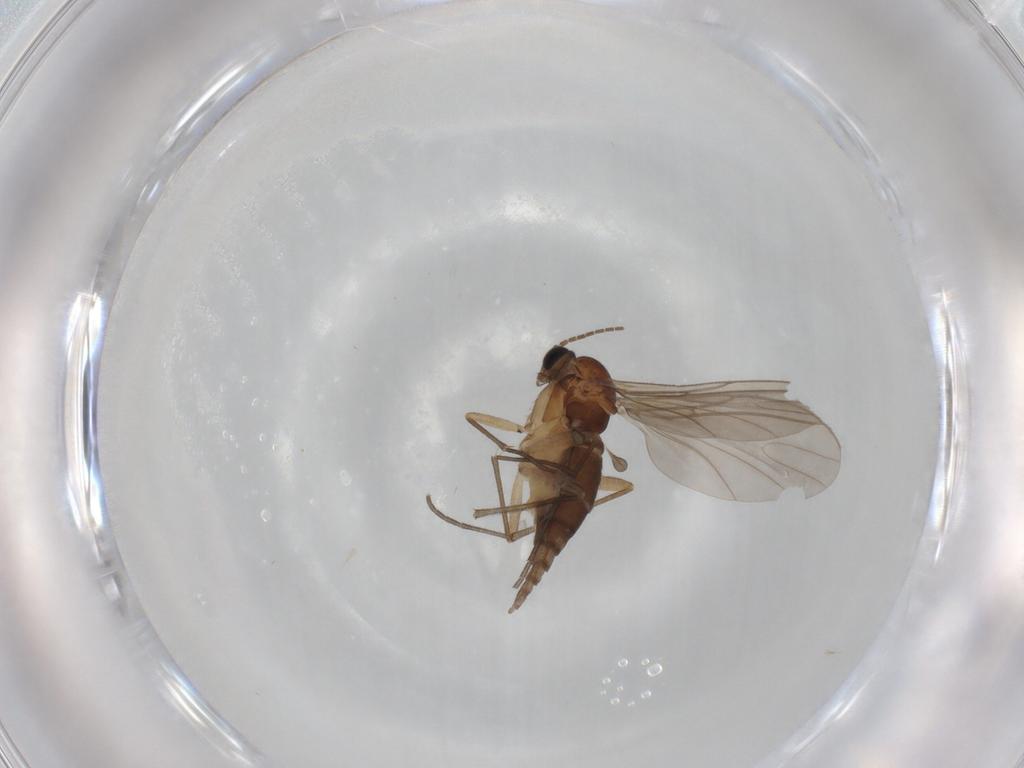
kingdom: Animalia
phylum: Arthropoda
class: Insecta
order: Diptera
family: Sciaridae
